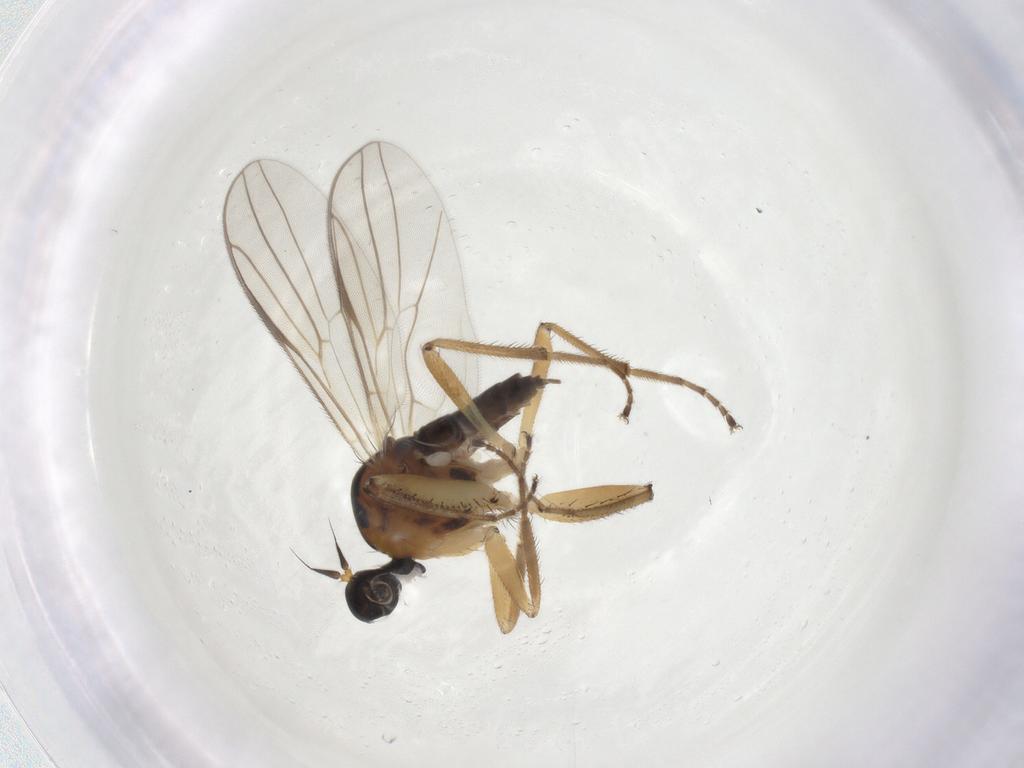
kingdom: Animalia
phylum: Arthropoda
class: Insecta
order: Diptera
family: Hybotidae
